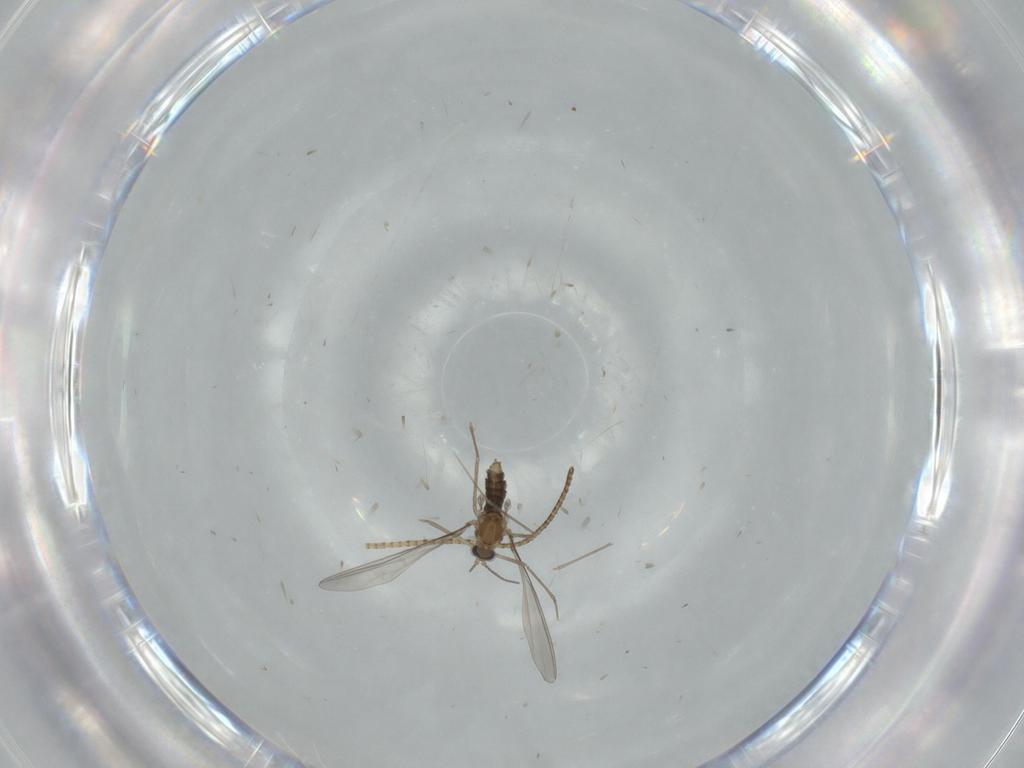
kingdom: Animalia
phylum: Arthropoda
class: Insecta
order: Diptera
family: Cecidomyiidae
